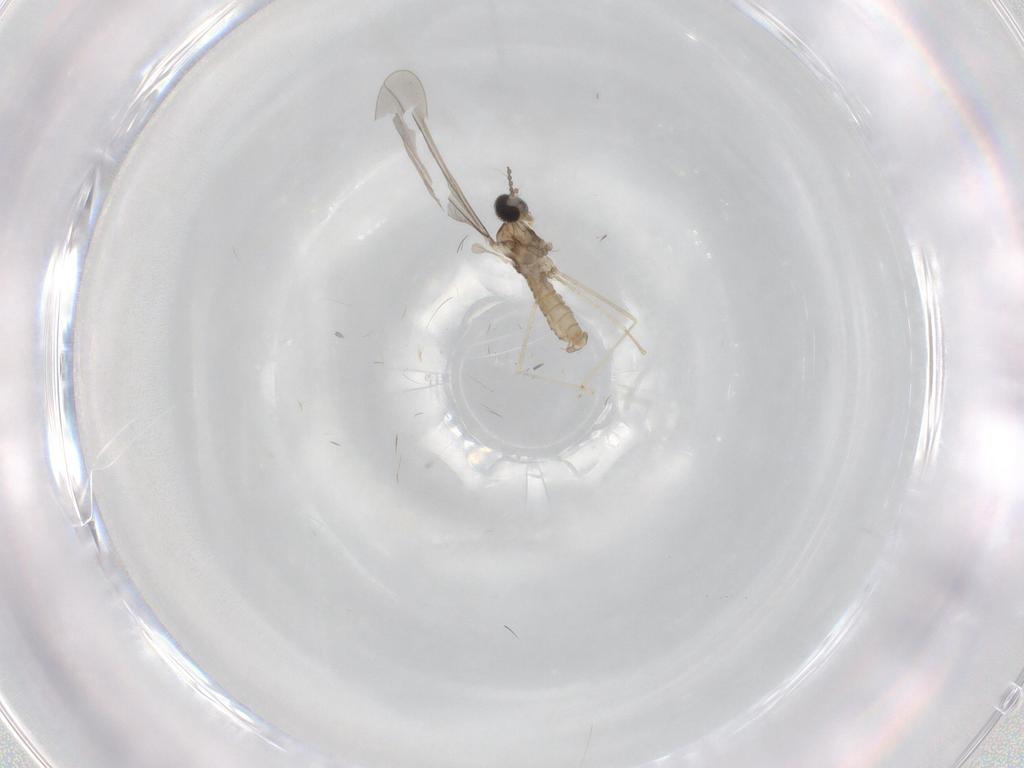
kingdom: Animalia
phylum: Arthropoda
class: Insecta
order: Diptera
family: Cecidomyiidae
